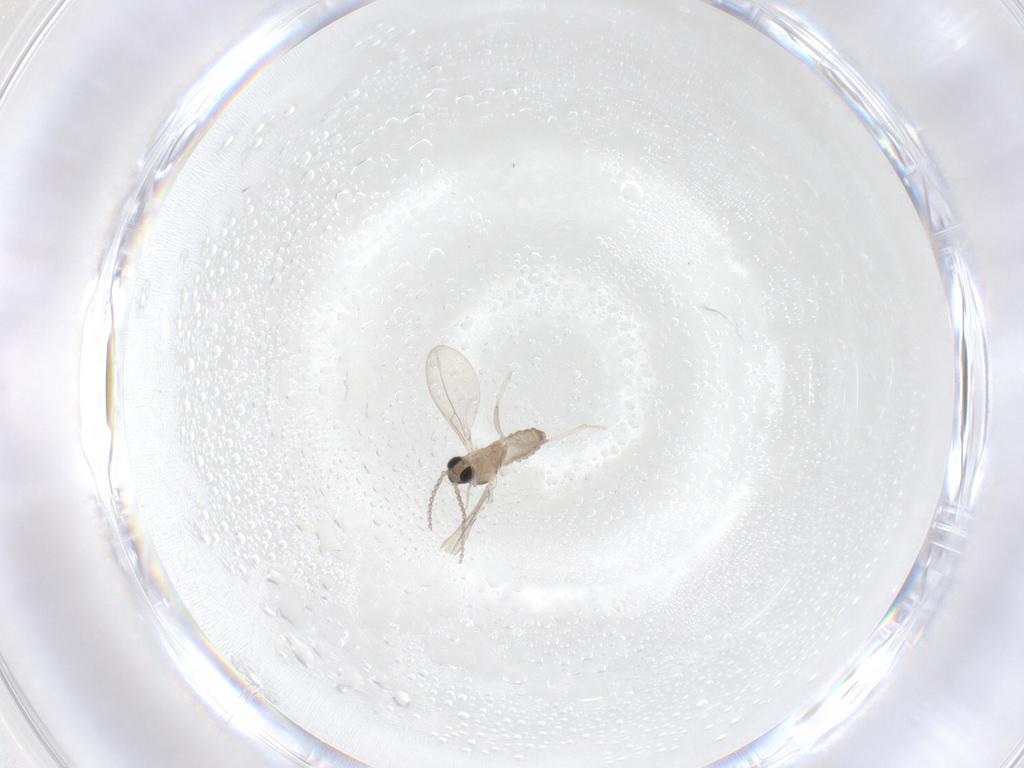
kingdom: Animalia
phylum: Arthropoda
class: Insecta
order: Diptera
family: Cecidomyiidae
